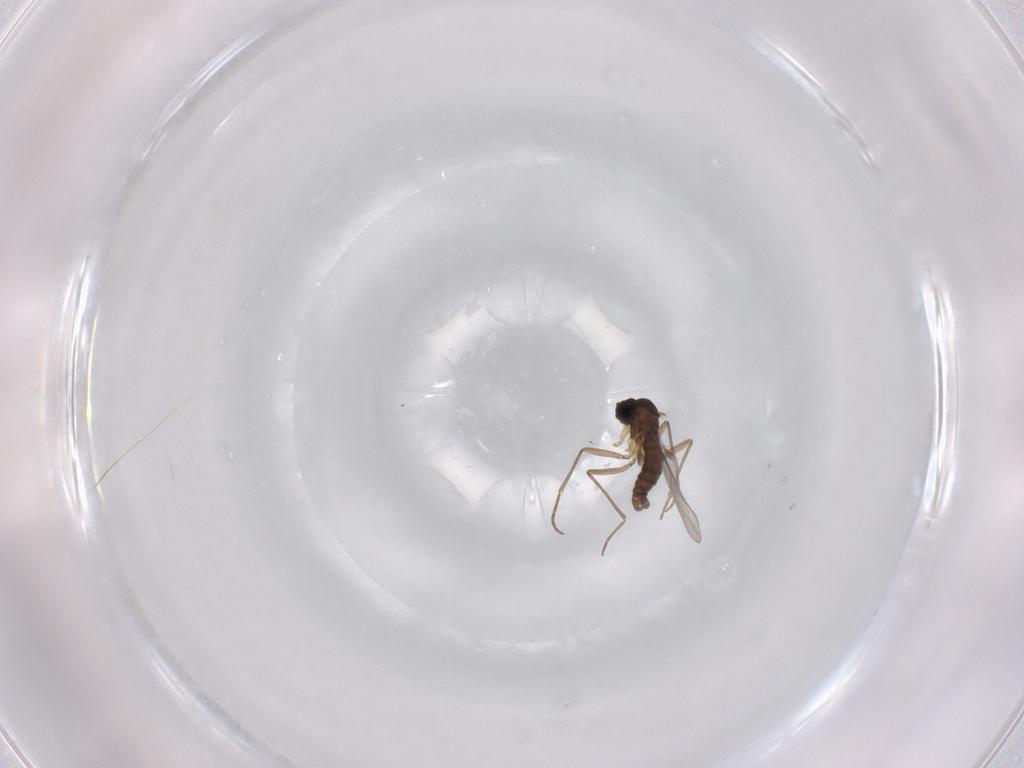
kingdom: Animalia
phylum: Arthropoda
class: Insecta
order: Diptera
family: Sciaridae
